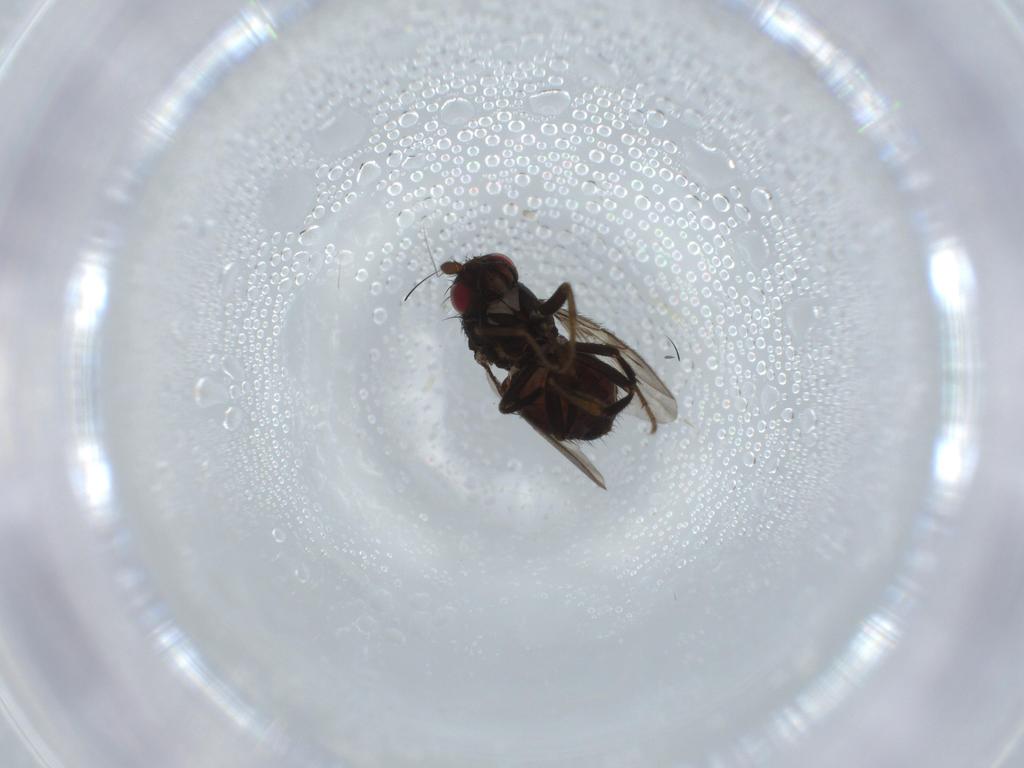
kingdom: Animalia
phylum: Arthropoda
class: Insecta
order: Diptera
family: Sphaeroceridae
